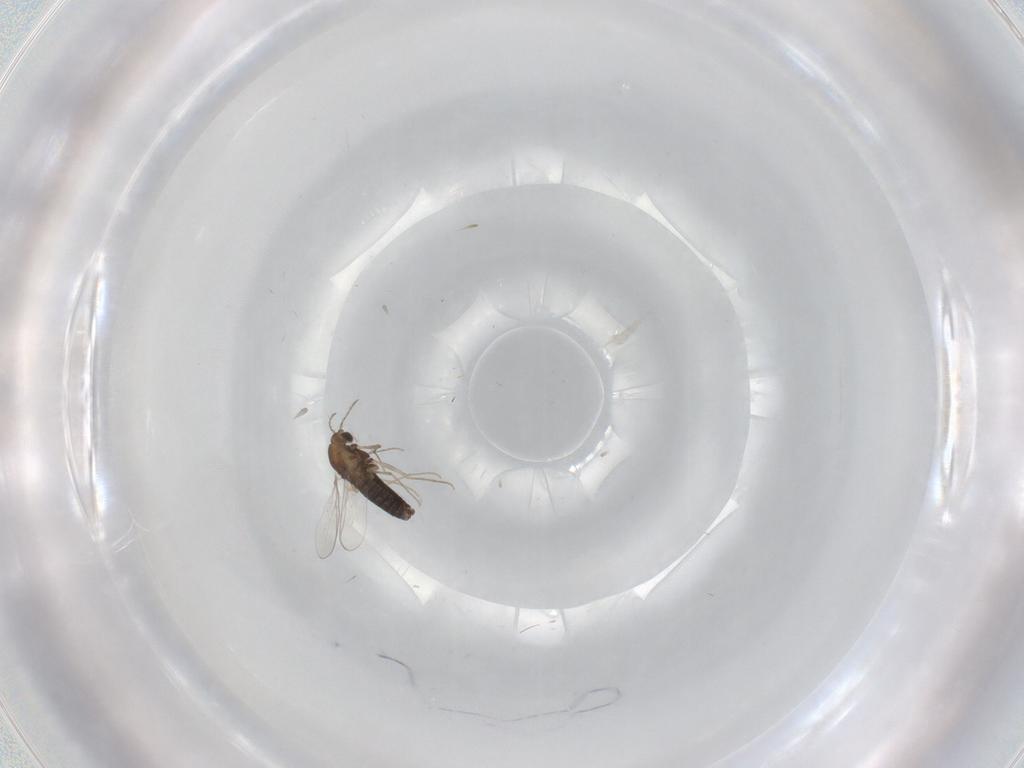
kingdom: Animalia
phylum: Arthropoda
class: Insecta
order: Diptera
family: Chironomidae
